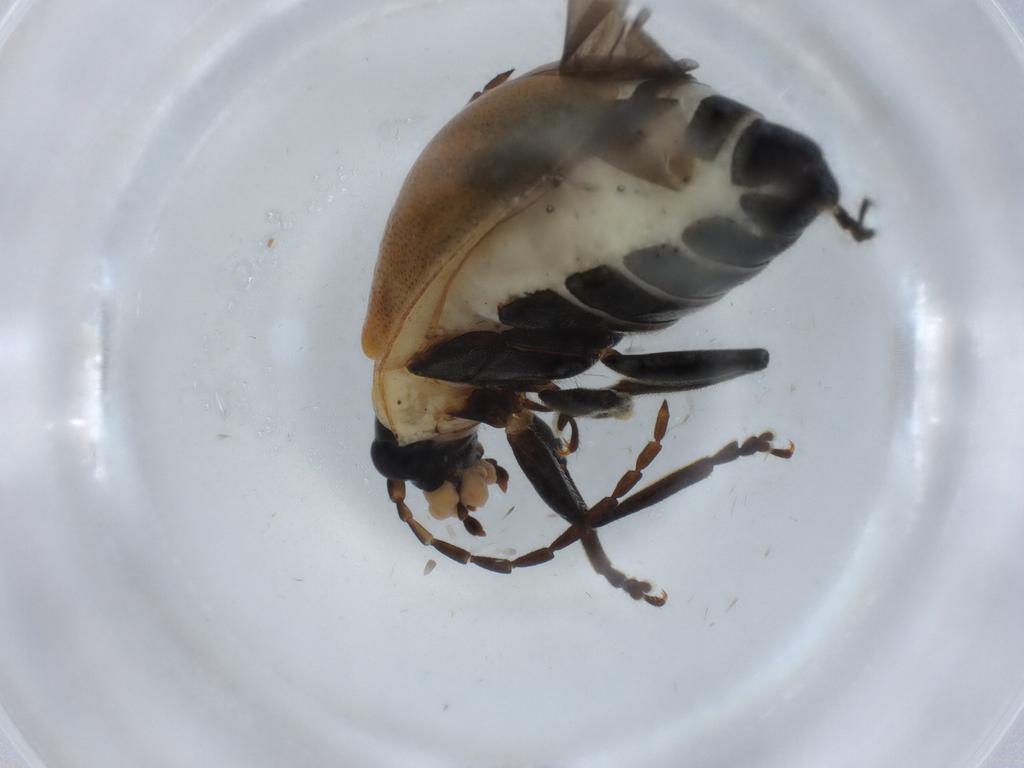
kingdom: Animalia
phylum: Arthropoda
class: Insecta
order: Coleoptera
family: Chrysomelidae
